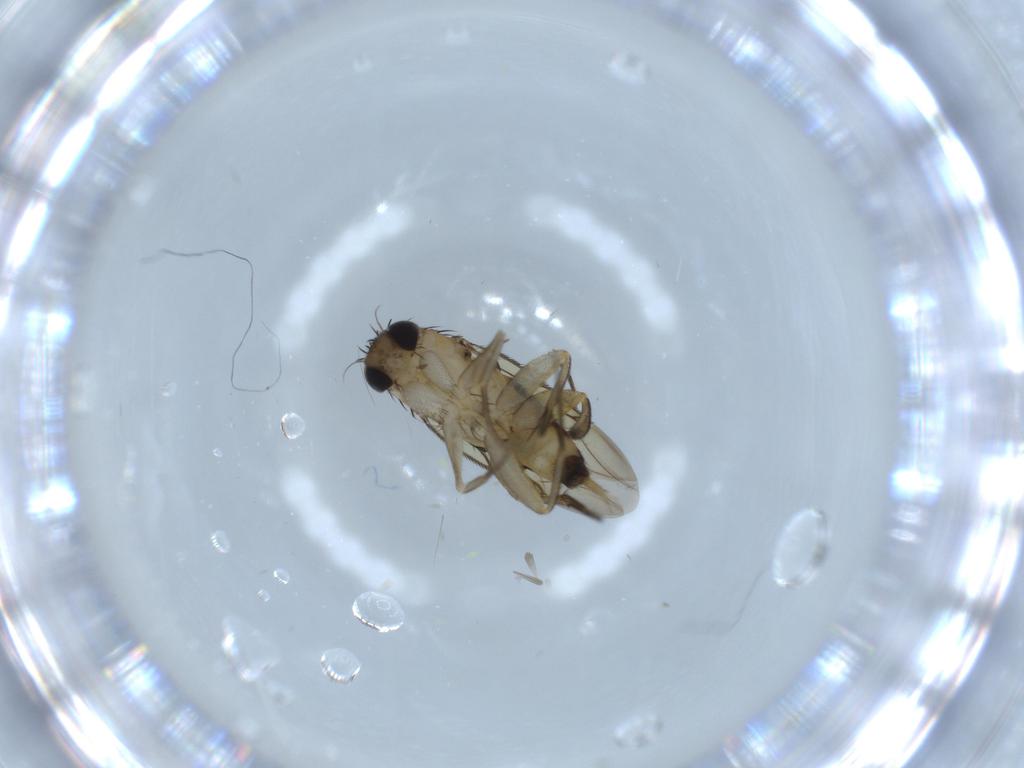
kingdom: Animalia
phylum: Arthropoda
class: Insecta
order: Diptera
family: Phoridae
